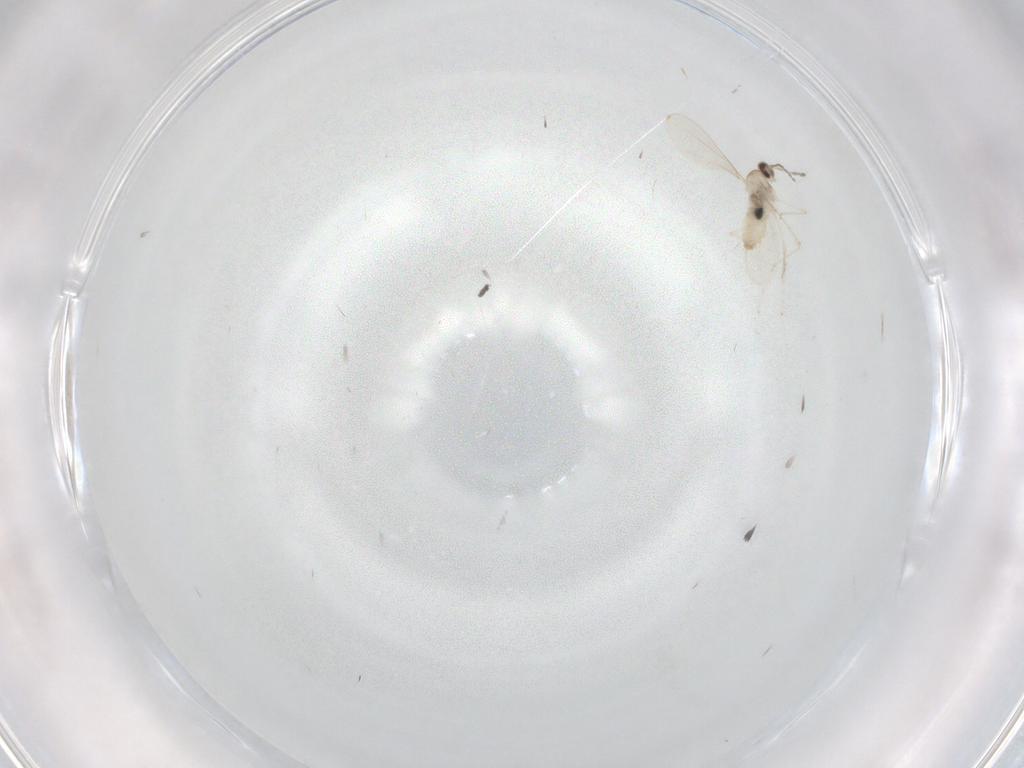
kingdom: Animalia
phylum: Arthropoda
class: Insecta
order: Diptera
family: Phoridae
